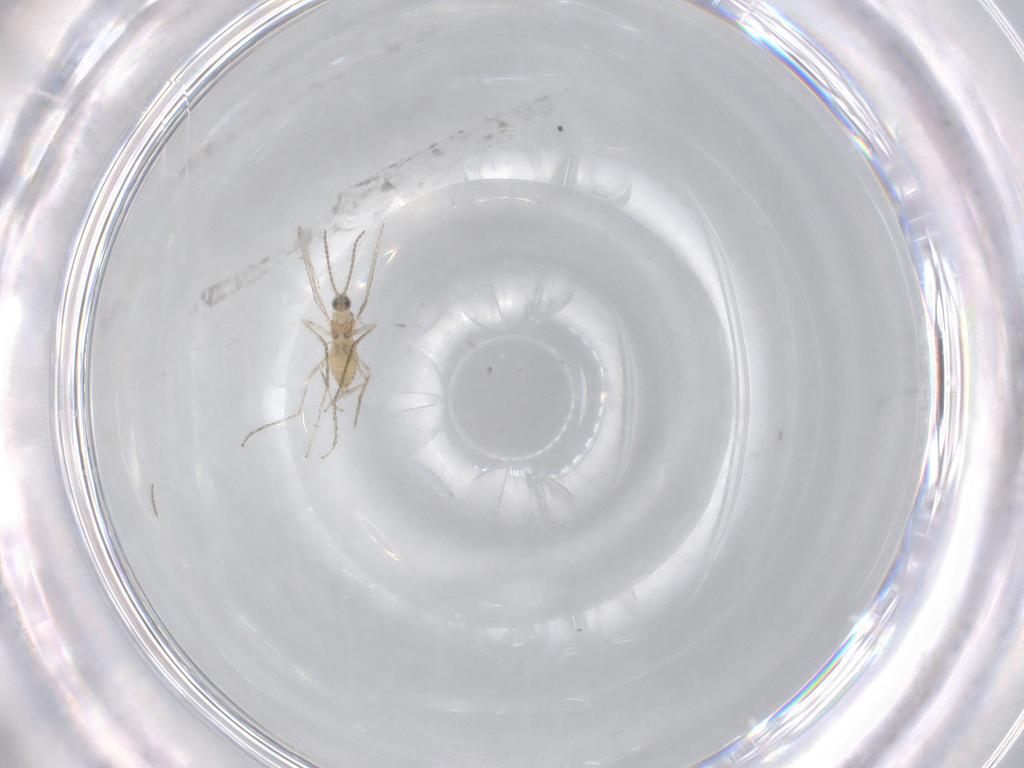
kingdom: Animalia
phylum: Arthropoda
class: Insecta
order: Diptera
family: Cecidomyiidae
